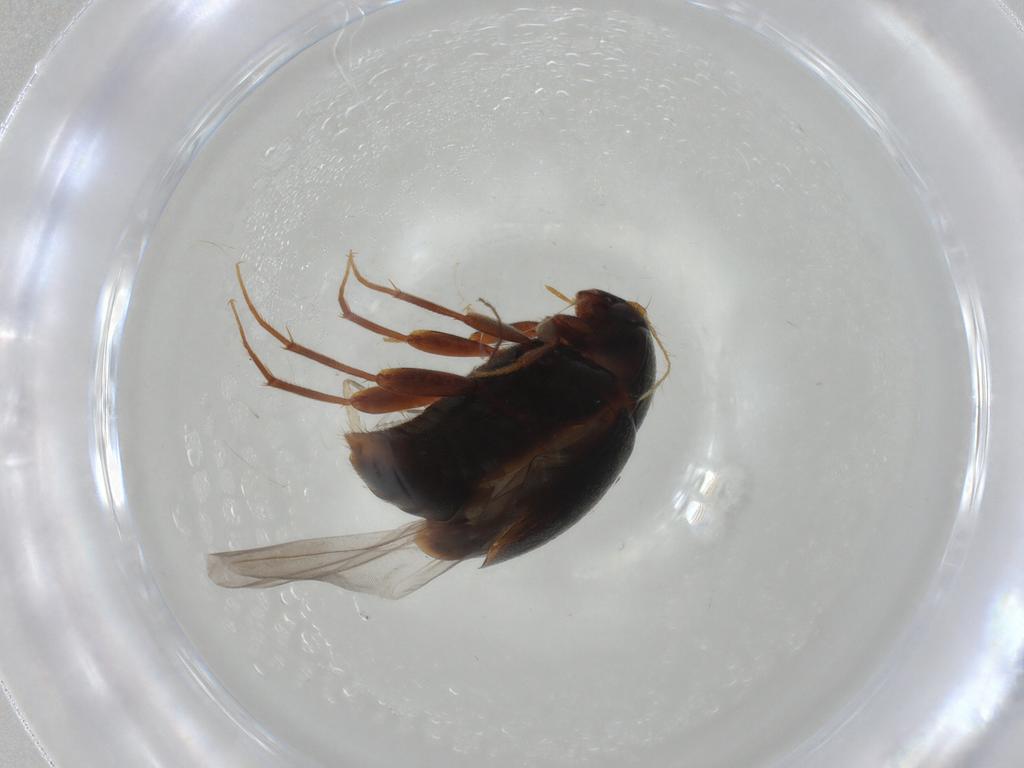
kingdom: Animalia
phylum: Arthropoda
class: Insecta
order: Coleoptera
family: Staphylinidae
